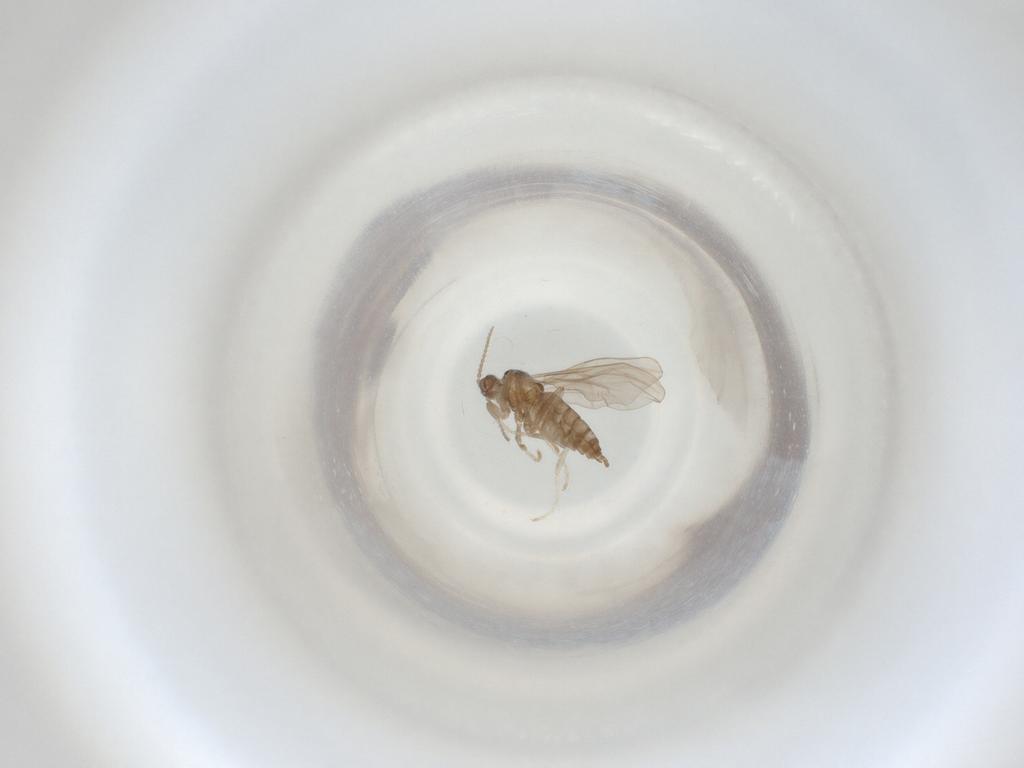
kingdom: Animalia
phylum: Arthropoda
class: Insecta
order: Diptera
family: Cecidomyiidae
